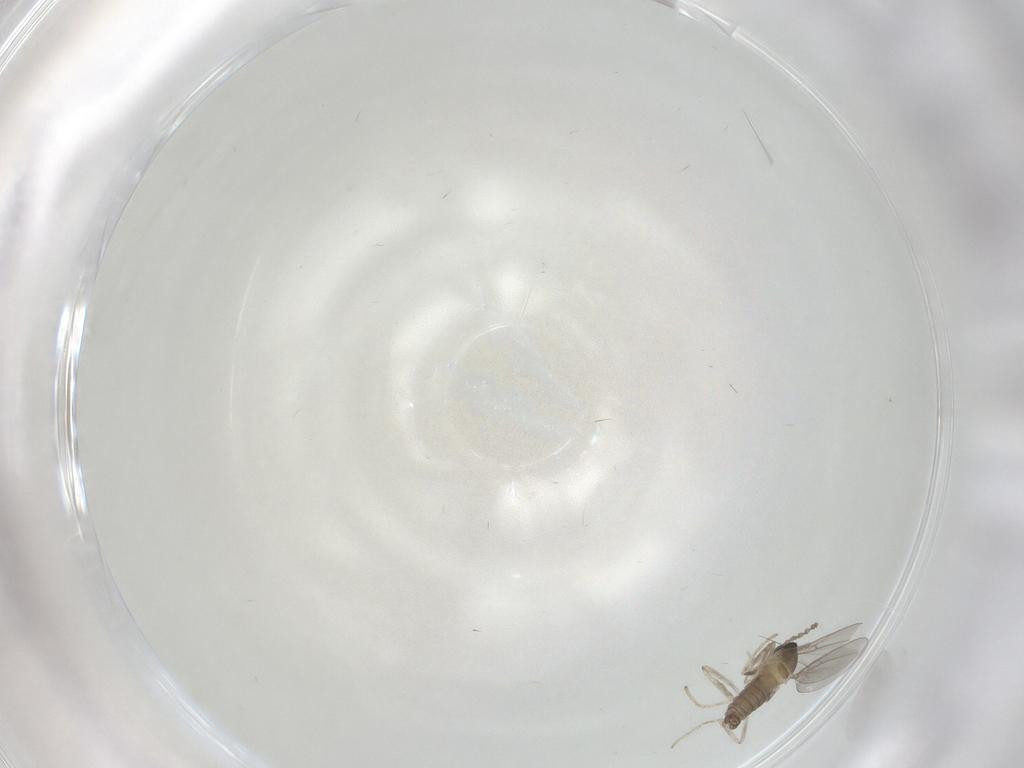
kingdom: Animalia
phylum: Arthropoda
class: Insecta
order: Diptera
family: Cecidomyiidae
